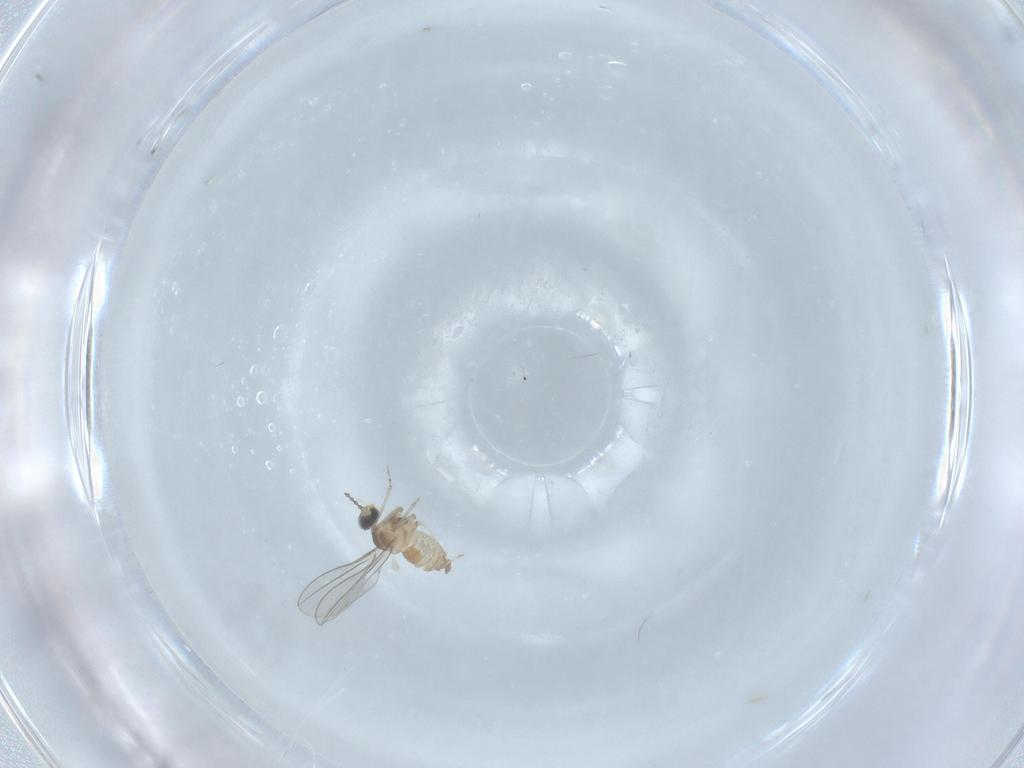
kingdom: Animalia
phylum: Arthropoda
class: Insecta
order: Diptera
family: Cecidomyiidae
